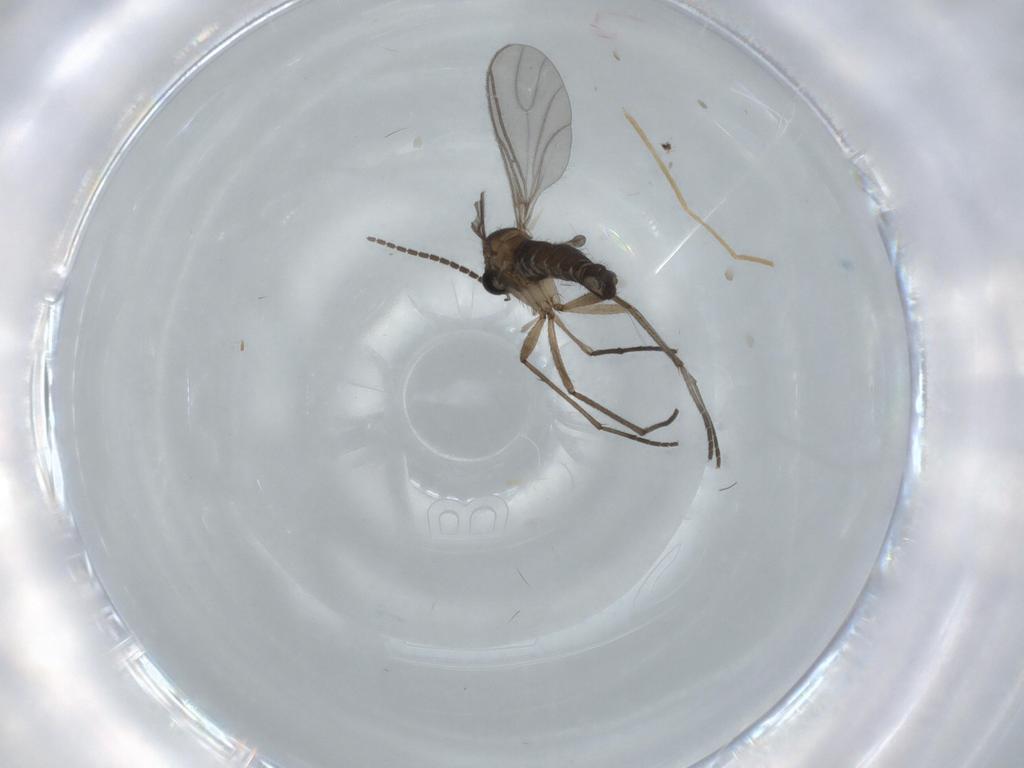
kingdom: Animalia
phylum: Arthropoda
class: Insecta
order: Diptera
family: Sciaridae
